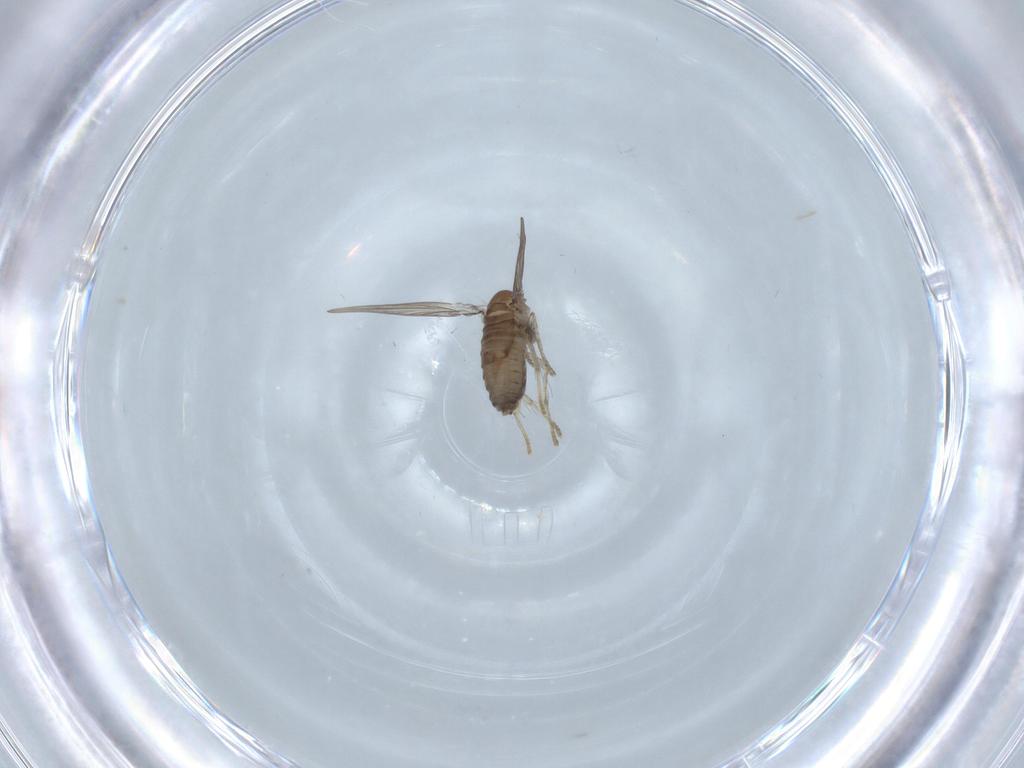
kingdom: Animalia
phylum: Arthropoda
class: Insecta
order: Diptera
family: Psychodidae
